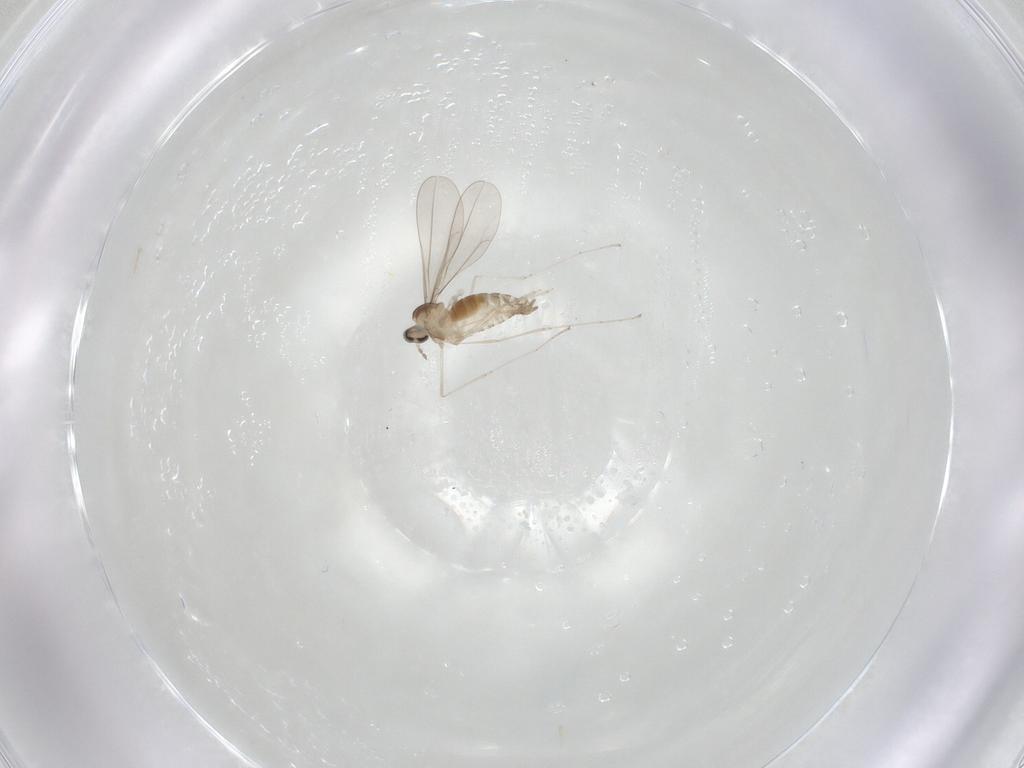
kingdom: Animalia
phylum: Arthropoda
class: Insecta
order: Diptera
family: Cecidomyiidae
